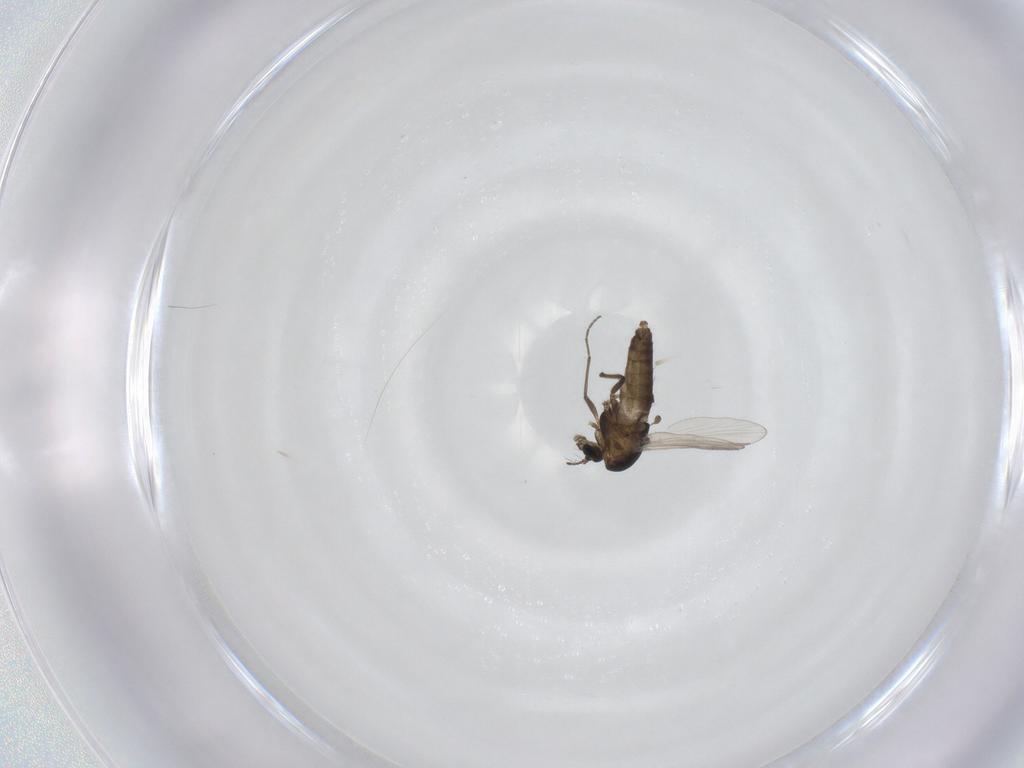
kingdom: Animalia
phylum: Arthropoda
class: Insecta
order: Diptera
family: Chironomidae
